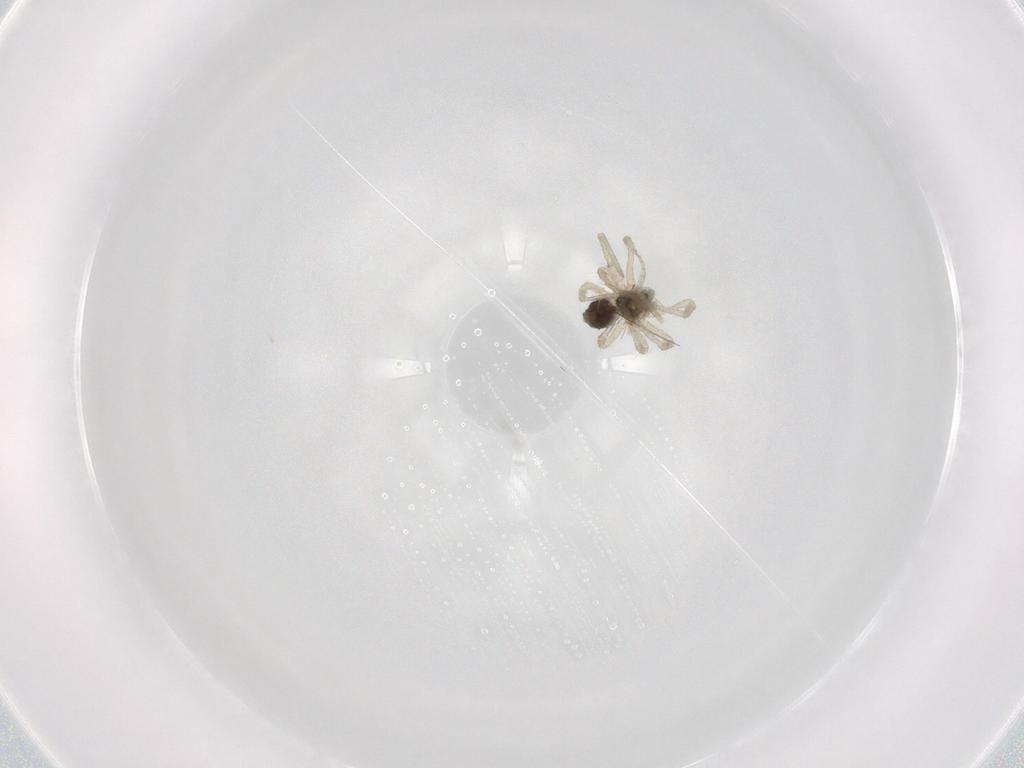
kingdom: Animalia
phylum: Arthropoda
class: Arachnida
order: Araneae
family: Linyphiidae
